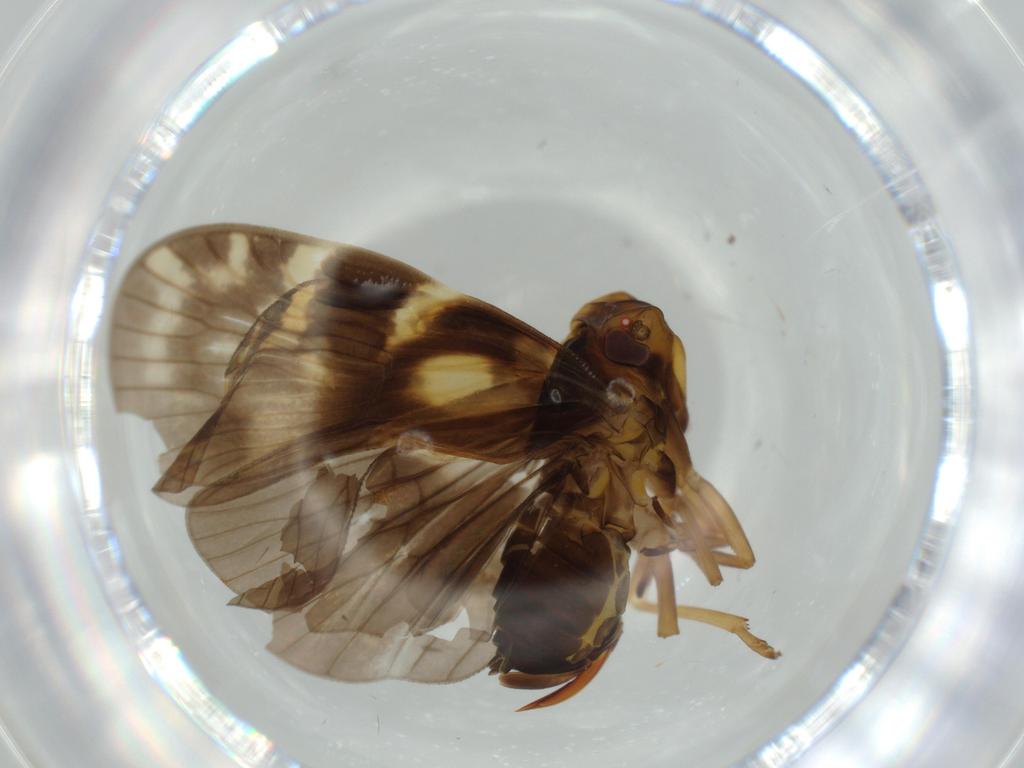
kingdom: Animalia
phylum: Arthropoda
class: Insecta
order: Hemiptera
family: Cixiidae
